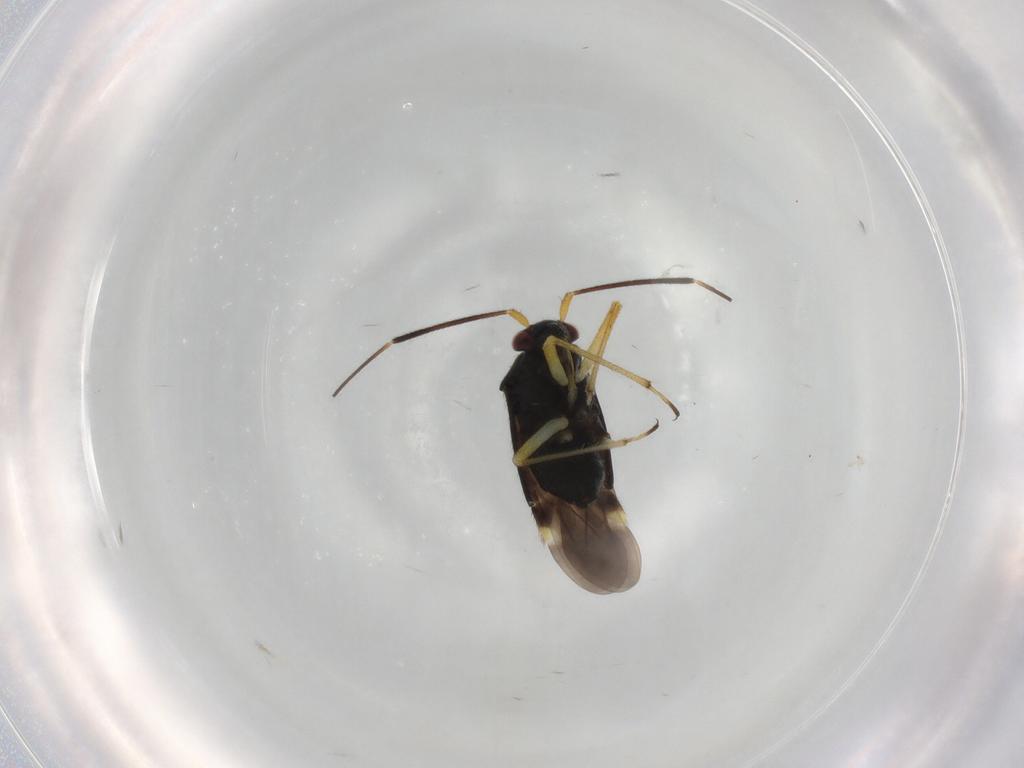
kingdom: Animalia
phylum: Arthropoda
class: Insecta
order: Hemiptera
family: Miridae
